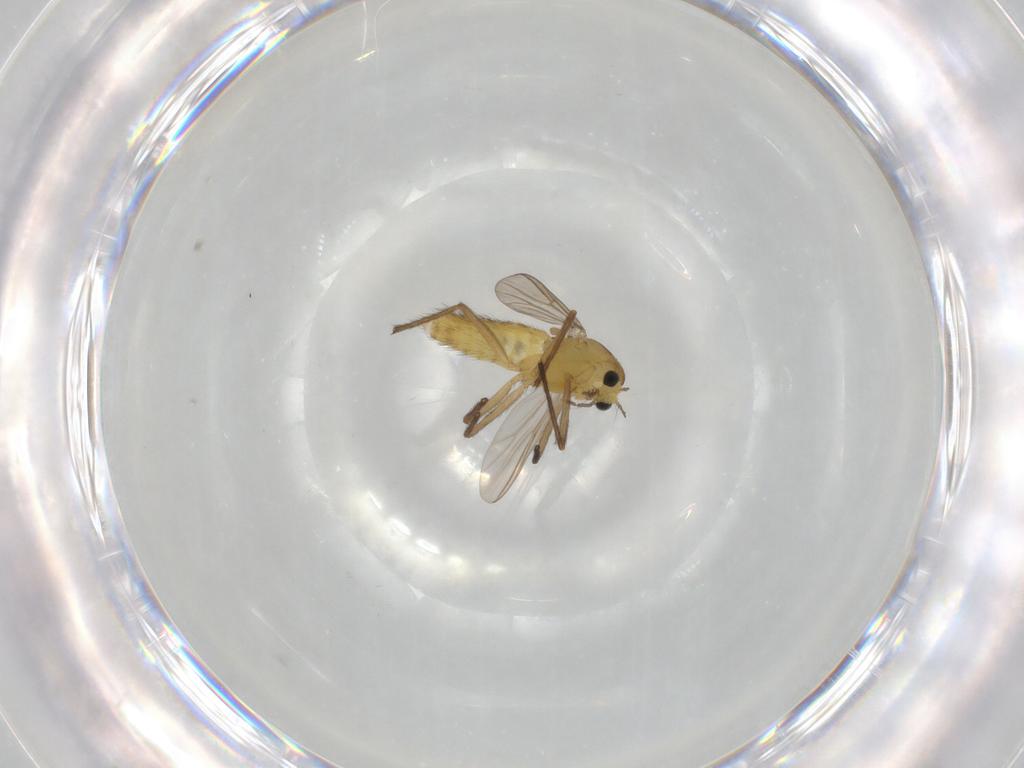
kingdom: Animalia
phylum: Arthropoda
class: Insecta
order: Diptera
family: Chironomidae
